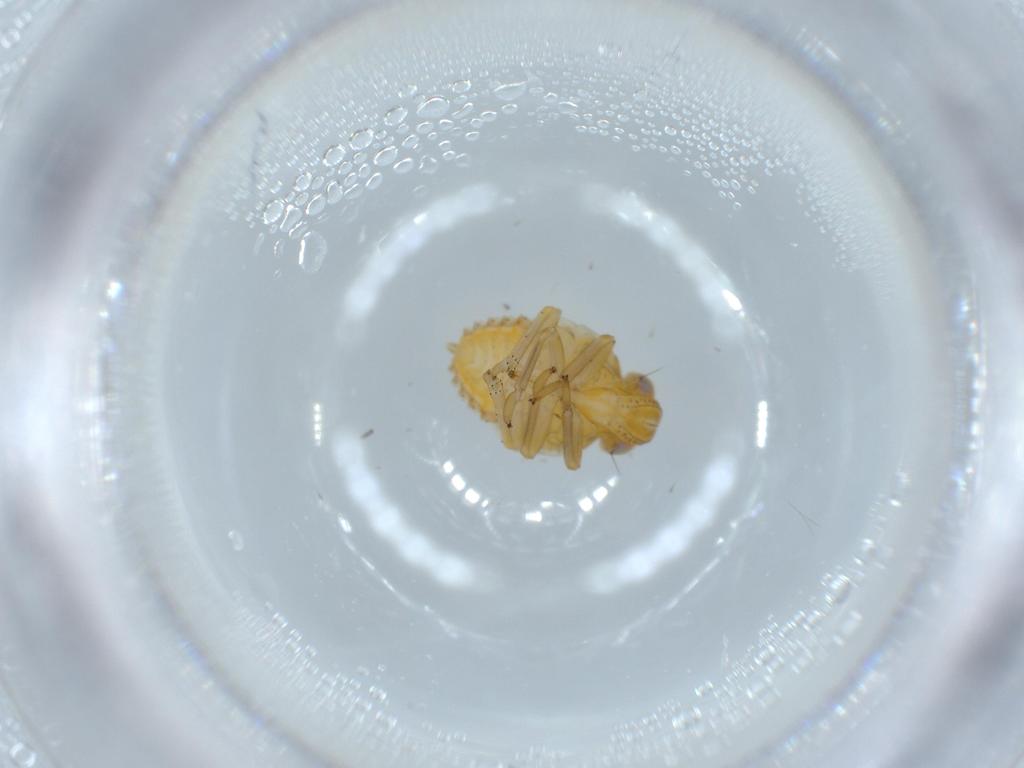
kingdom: Animalia
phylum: Arthropoda
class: Insecta
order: Hemiptera
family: Issidae
